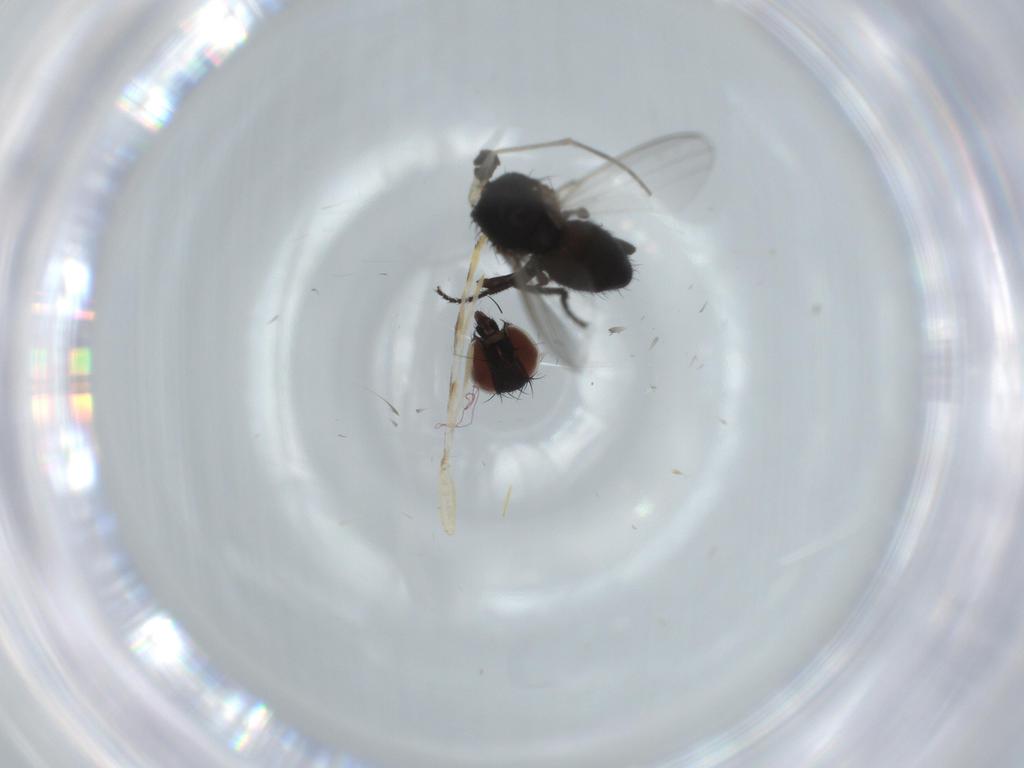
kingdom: Animalia
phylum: Arthropoda
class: Insecta
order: Diptera
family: Milichiidae
